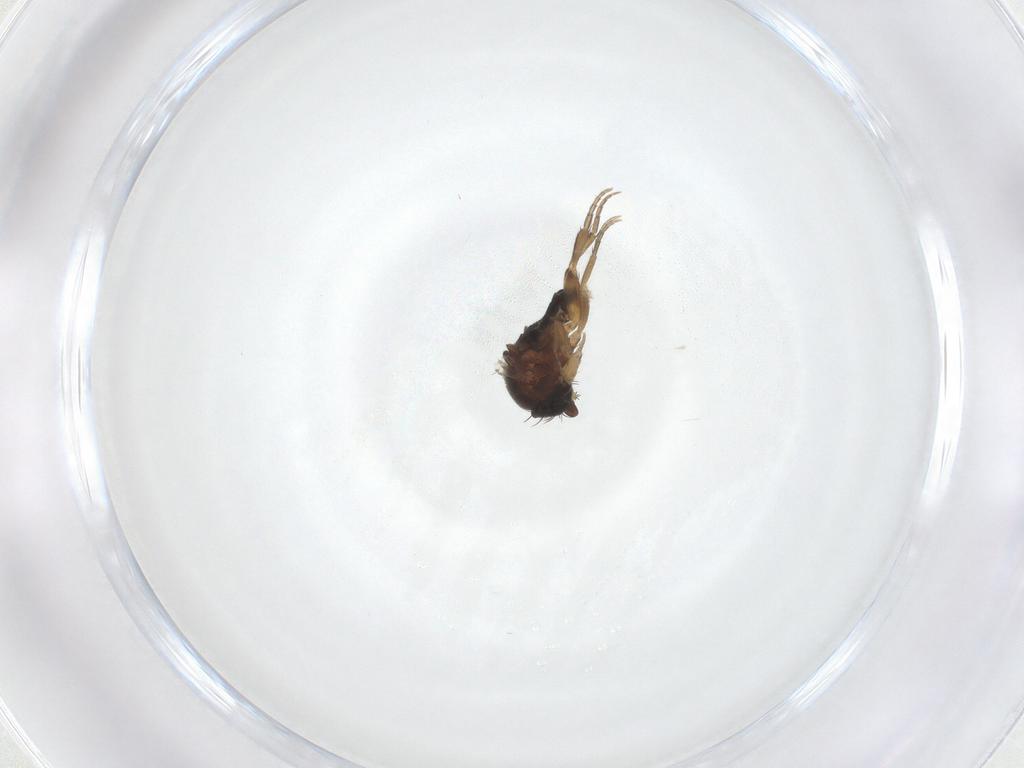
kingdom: Animalia
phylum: Arthropoda
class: Insecta
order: Diptera
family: Phoridae
